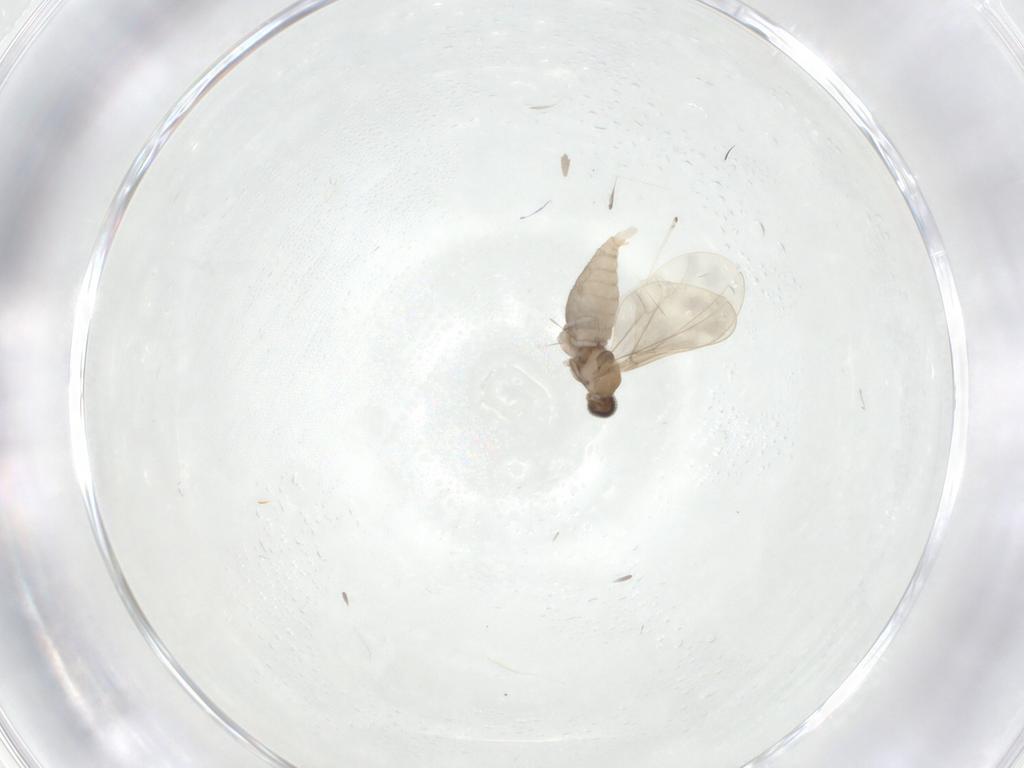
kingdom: Animalia
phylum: Arthropoda
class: Insecta
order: Diptera
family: Cecidomyiidae
